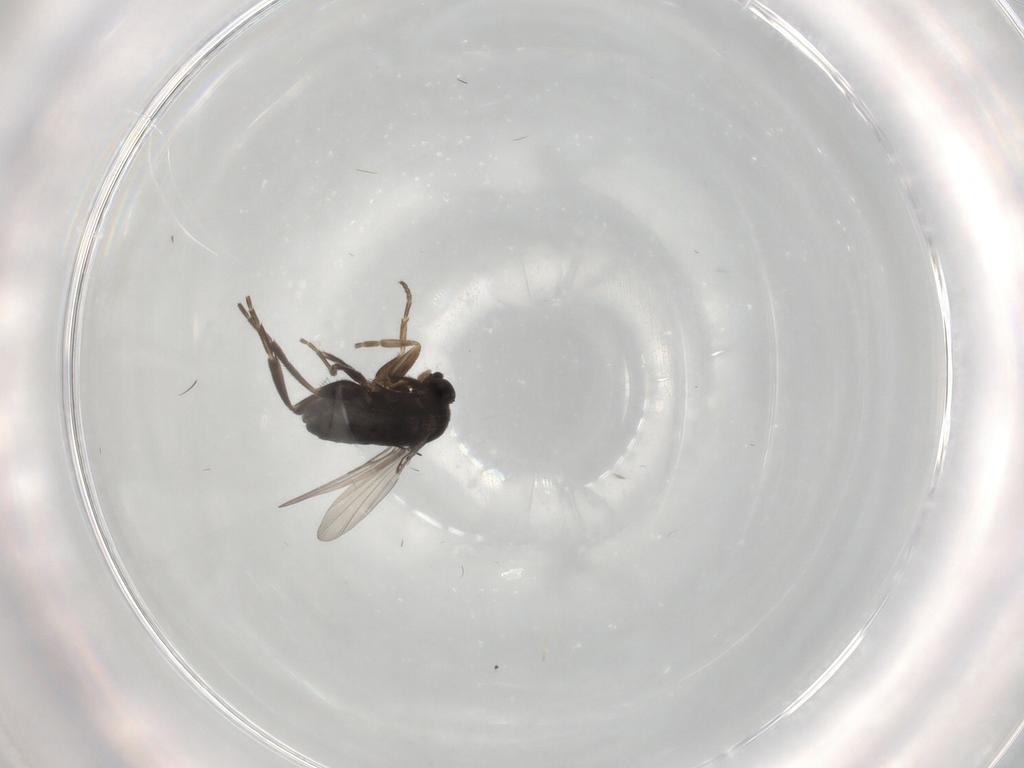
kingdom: Animalia
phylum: Arthropoda
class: Insecta
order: Diptera
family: Phoridae
